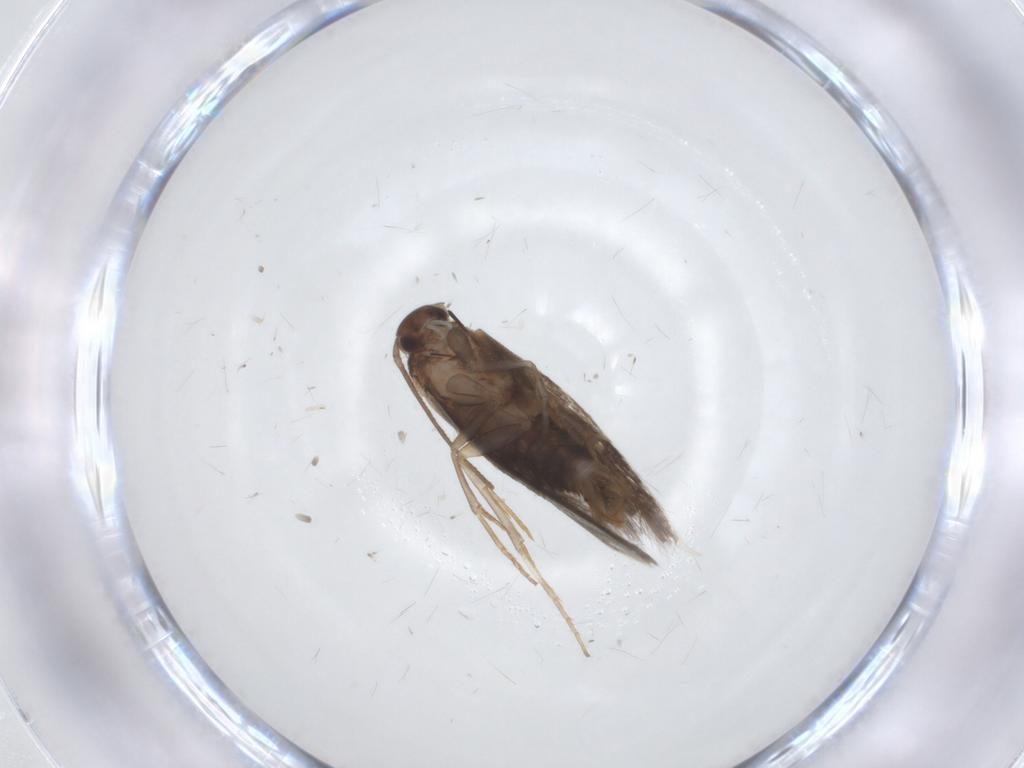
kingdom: Animalia
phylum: Arthropoda
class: Insecta
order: Lepidoptera
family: Elachistidae
